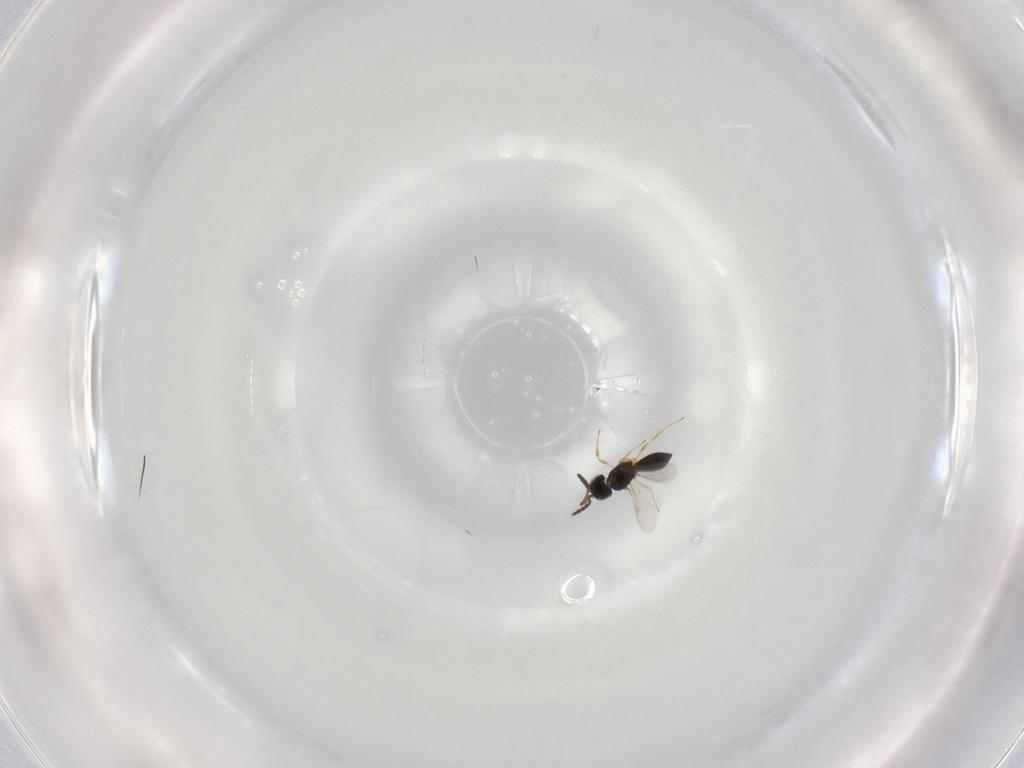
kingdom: Animalia
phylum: Arthropoda
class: Insecta
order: Hymenoptera
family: Scelionidae
